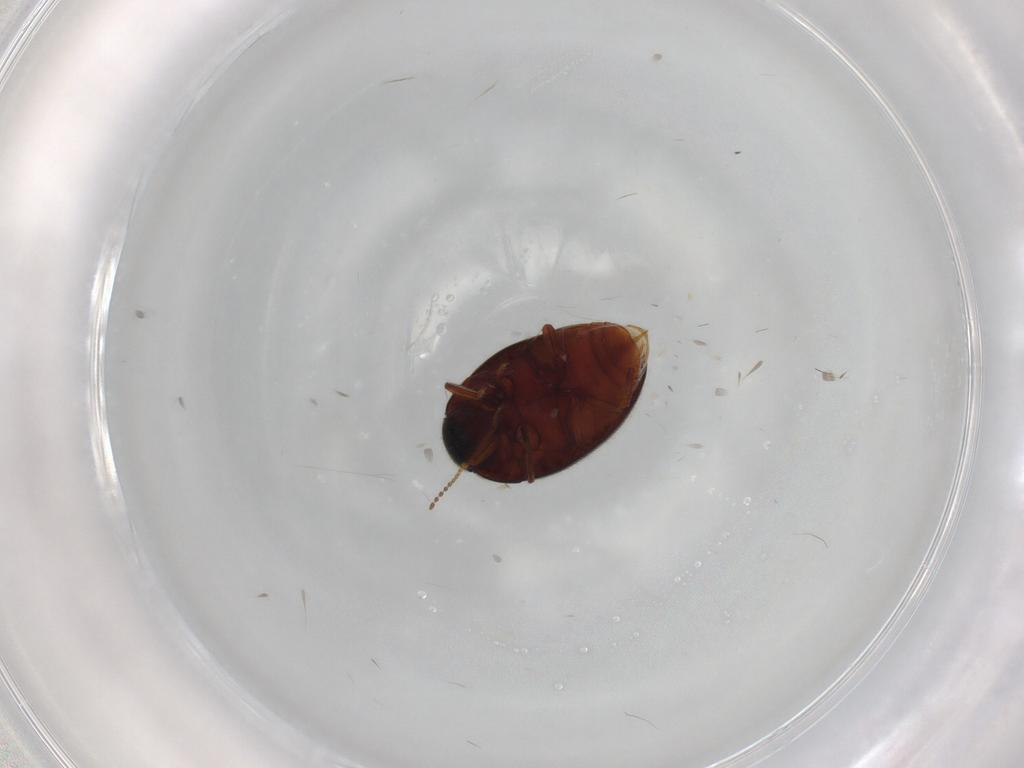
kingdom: Animalia
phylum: Arthropoda
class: Insecta
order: Coleoptera
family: Limnichidae
